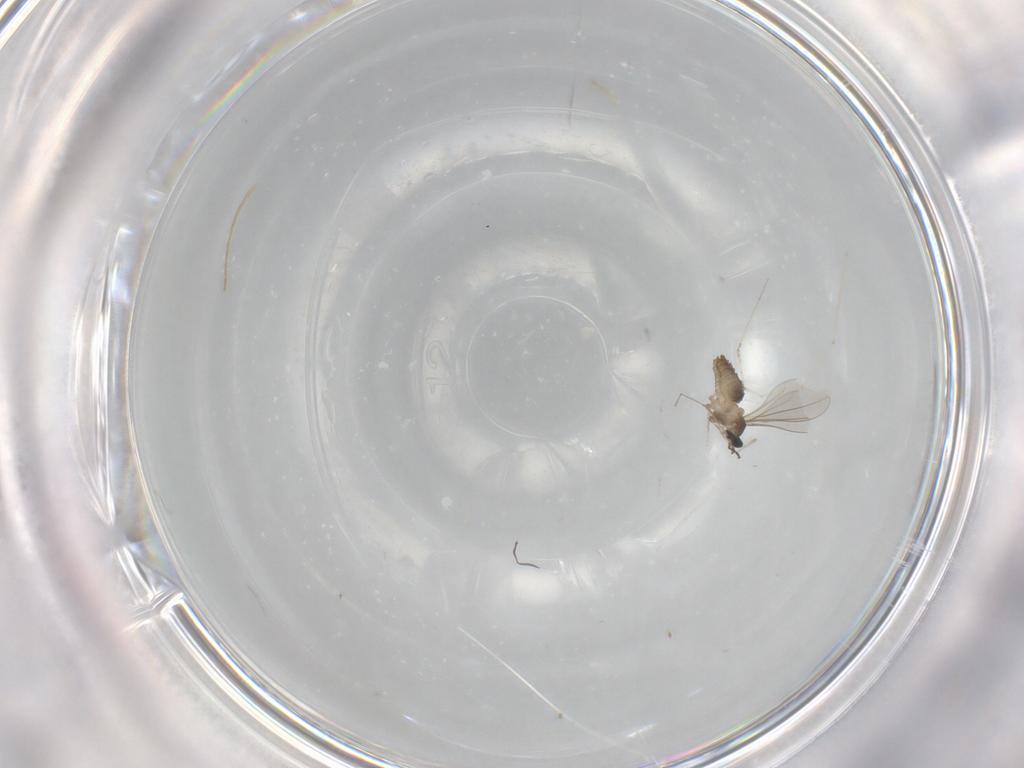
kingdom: Animalia
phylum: Arthropoda
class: Insecta
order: Diptera
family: Cecidomyiidae
